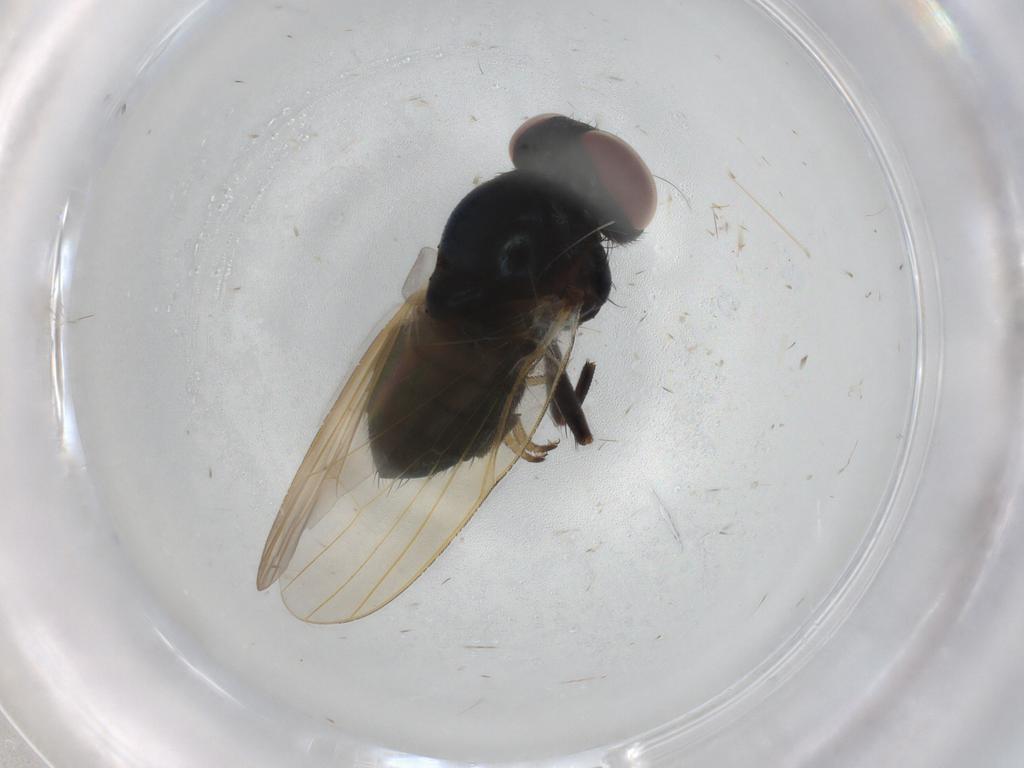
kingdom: Animalia
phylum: Arthropoda
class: Insecta
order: Diptera
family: Lonchaeidae
